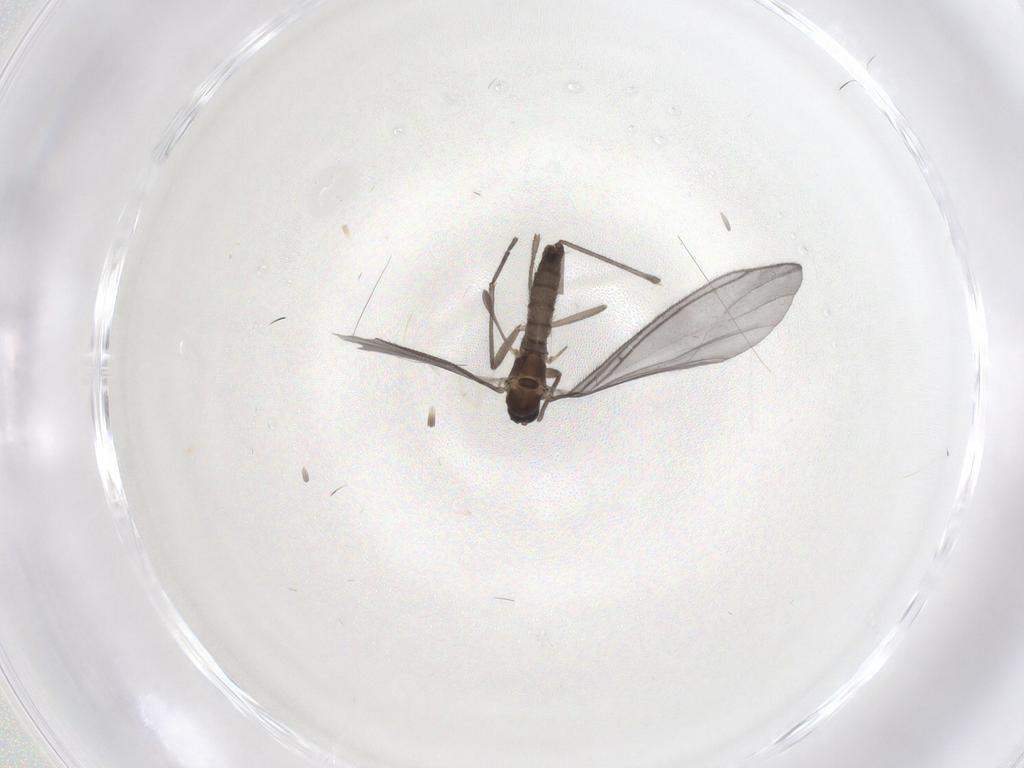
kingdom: Animalia
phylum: Arthropoda
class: Insecta
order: Diptera
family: Sciaridae
